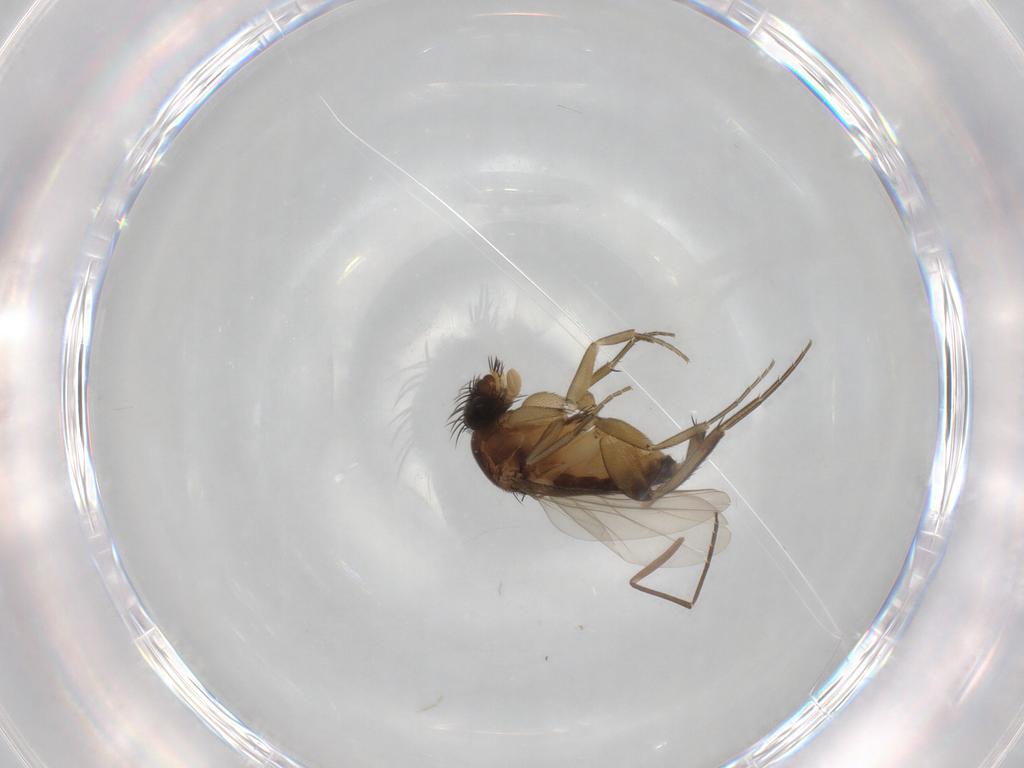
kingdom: Animalia
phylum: Arthropoda
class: Insecta
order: Diptera
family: Phoridae
